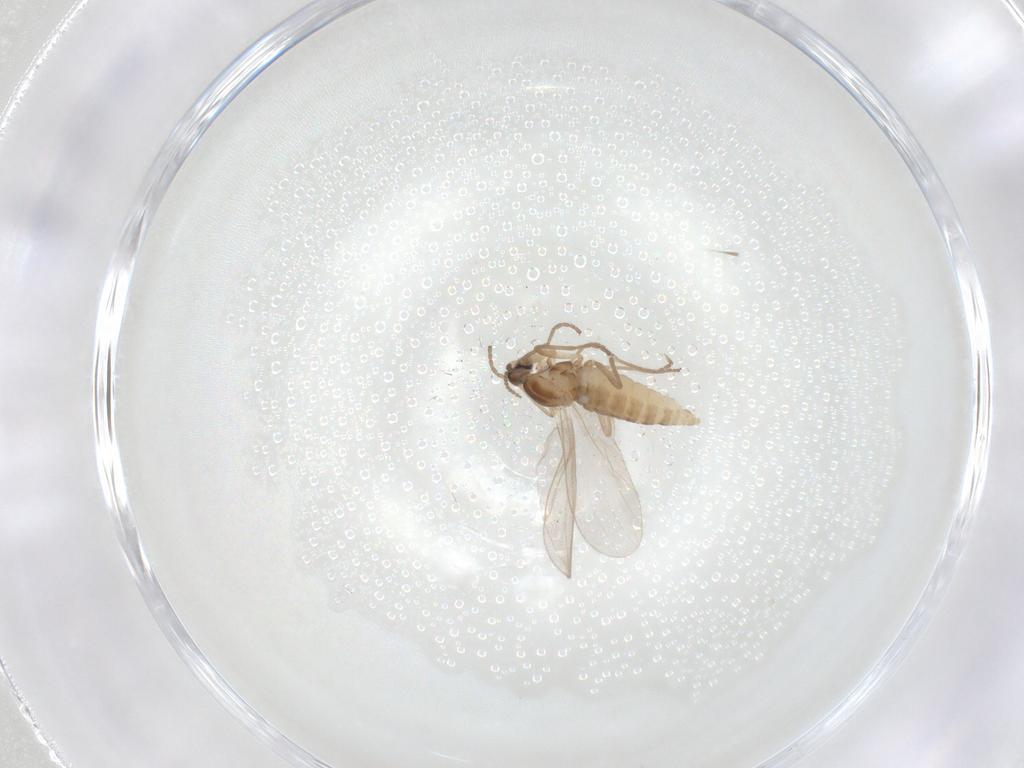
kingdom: Animalia
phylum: Arthropoda
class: Insecta
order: Diptera
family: Cecidomyiidae
